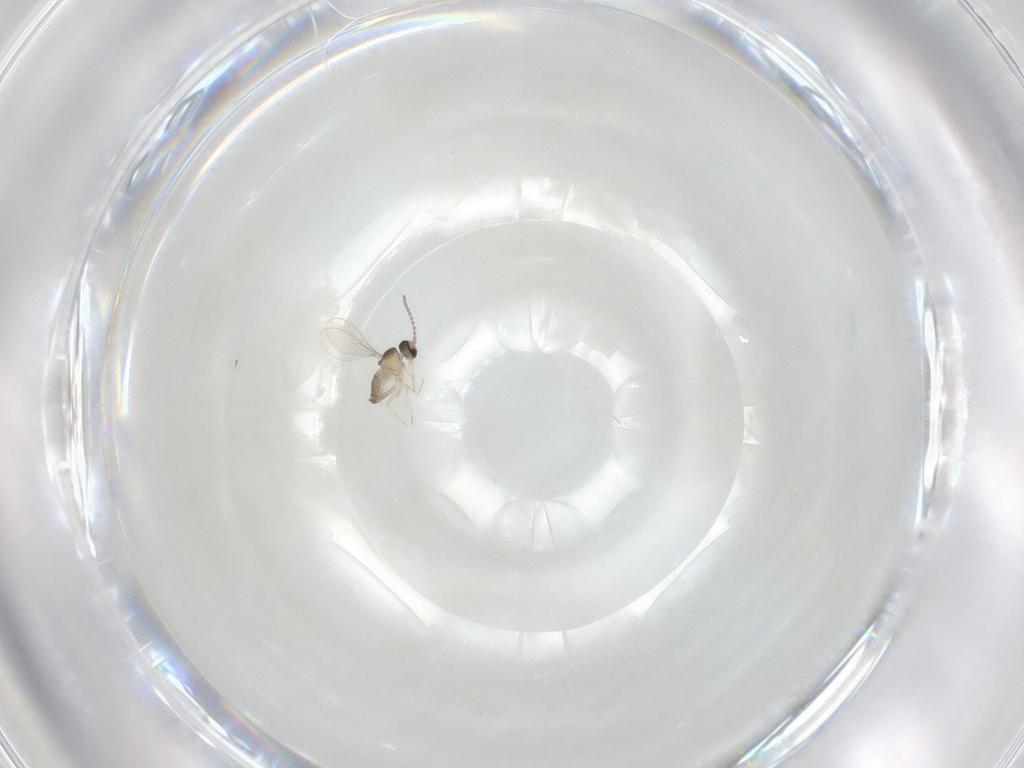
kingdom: Animalia
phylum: Arthropoda
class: Insecta
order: Diptera
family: Cecidomyiidae
